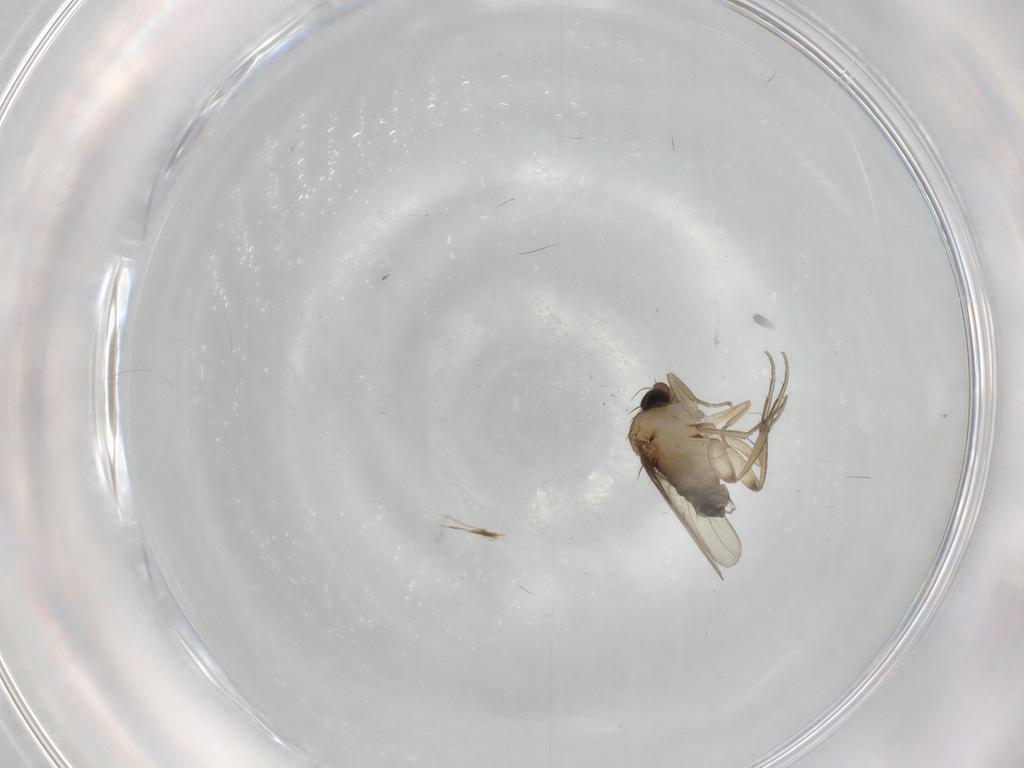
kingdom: Animalia
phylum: Arthropoda
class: Insecta
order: Diptera
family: Phoridae
